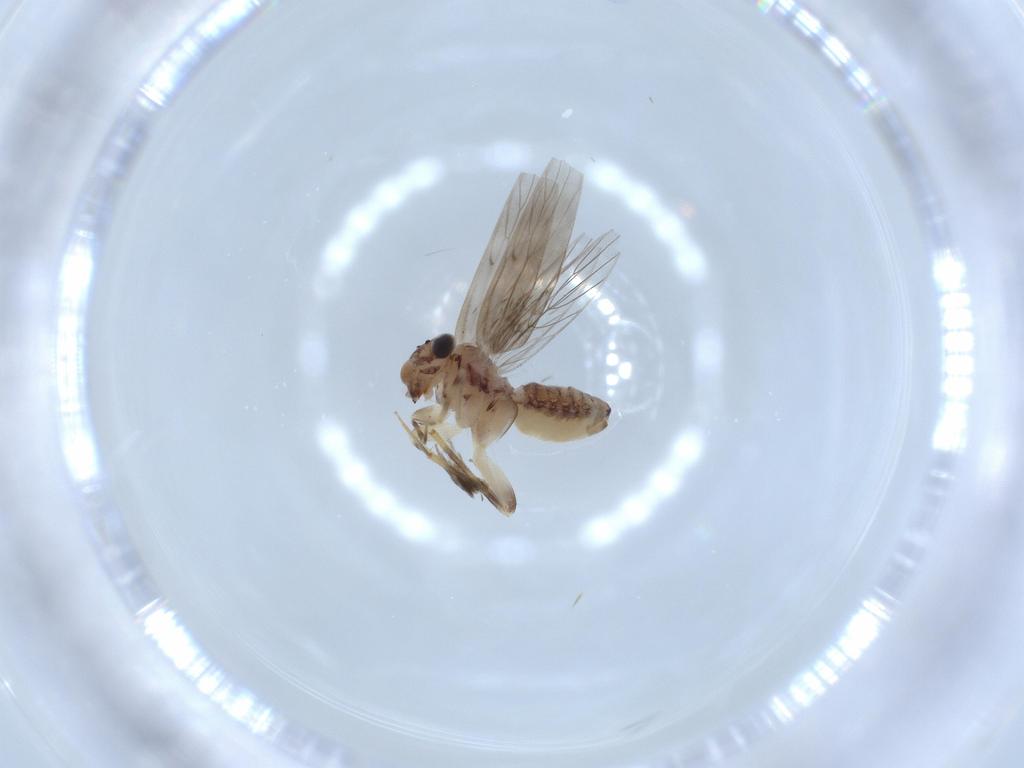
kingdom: Animalia
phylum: Arthropoda
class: Insecta
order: Psocodea
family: Lepidopsocidae
